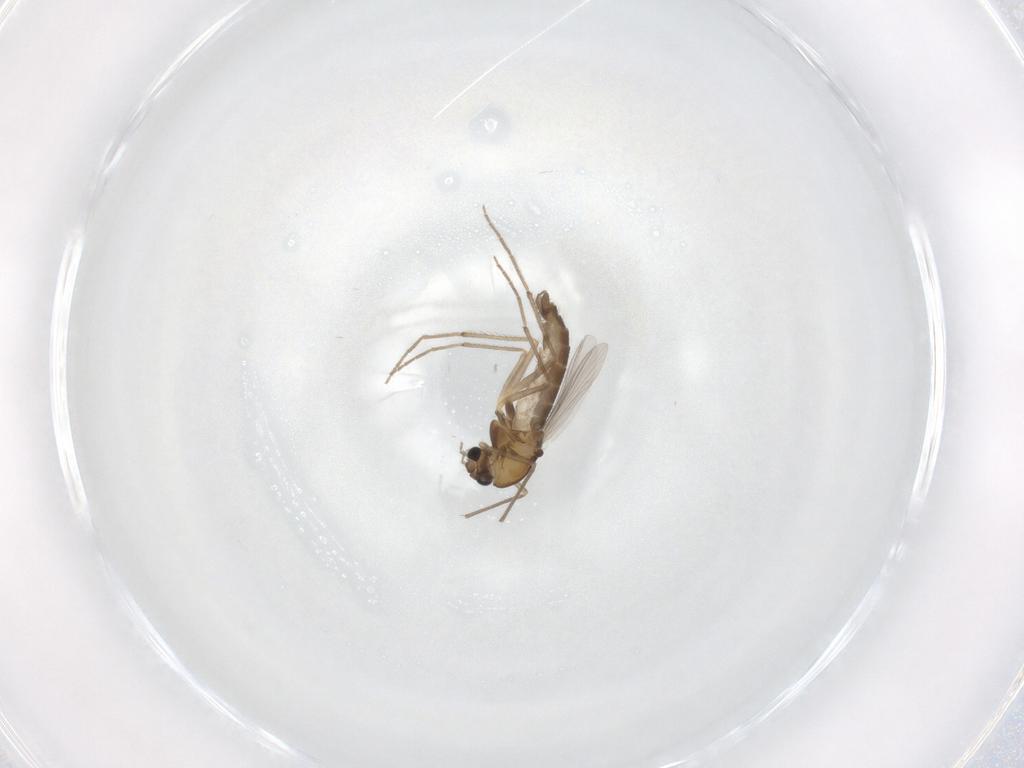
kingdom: Animalia
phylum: Arthropoda
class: Insecta
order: Diptera
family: Chironomidae
